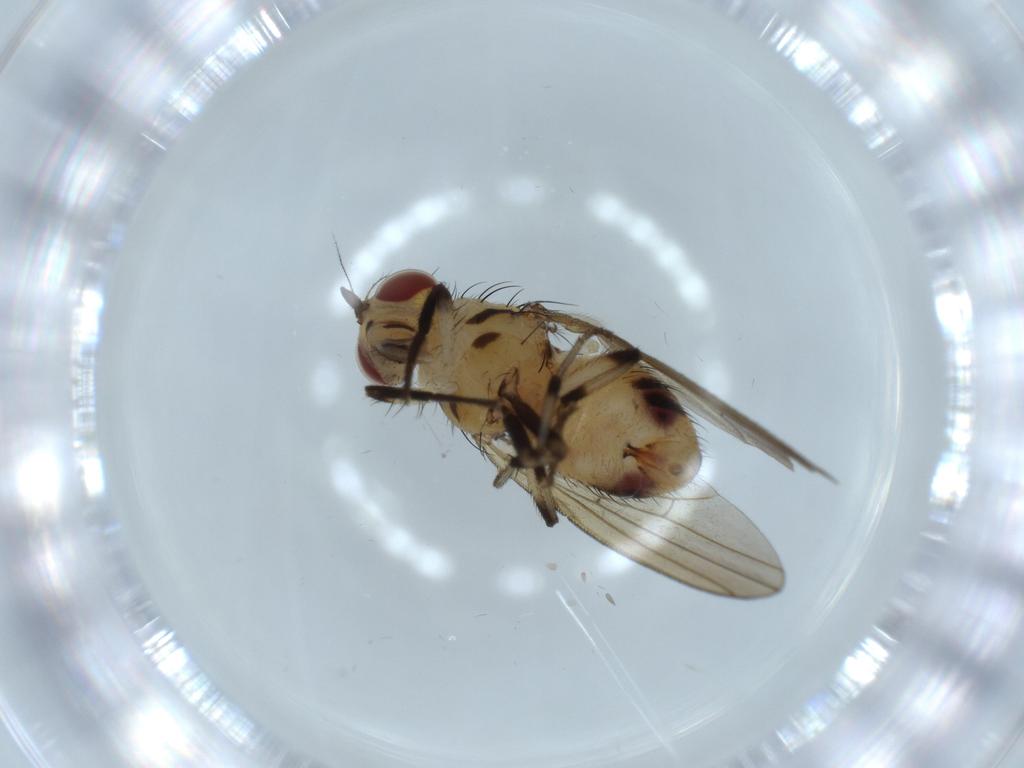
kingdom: Animalia
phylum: Arthropoda
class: Insecta
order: Diptera
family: Lauxaniidae
